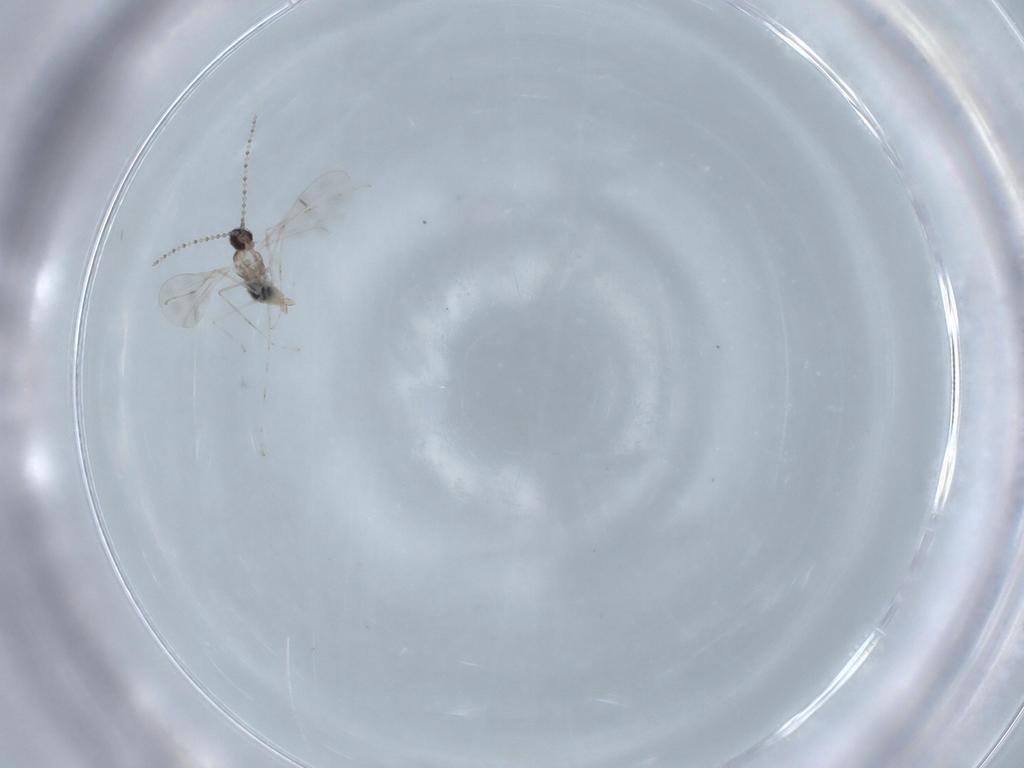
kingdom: Animalia
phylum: Arthropoda
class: Insecta
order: Diptera
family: Cecidomyiidae
